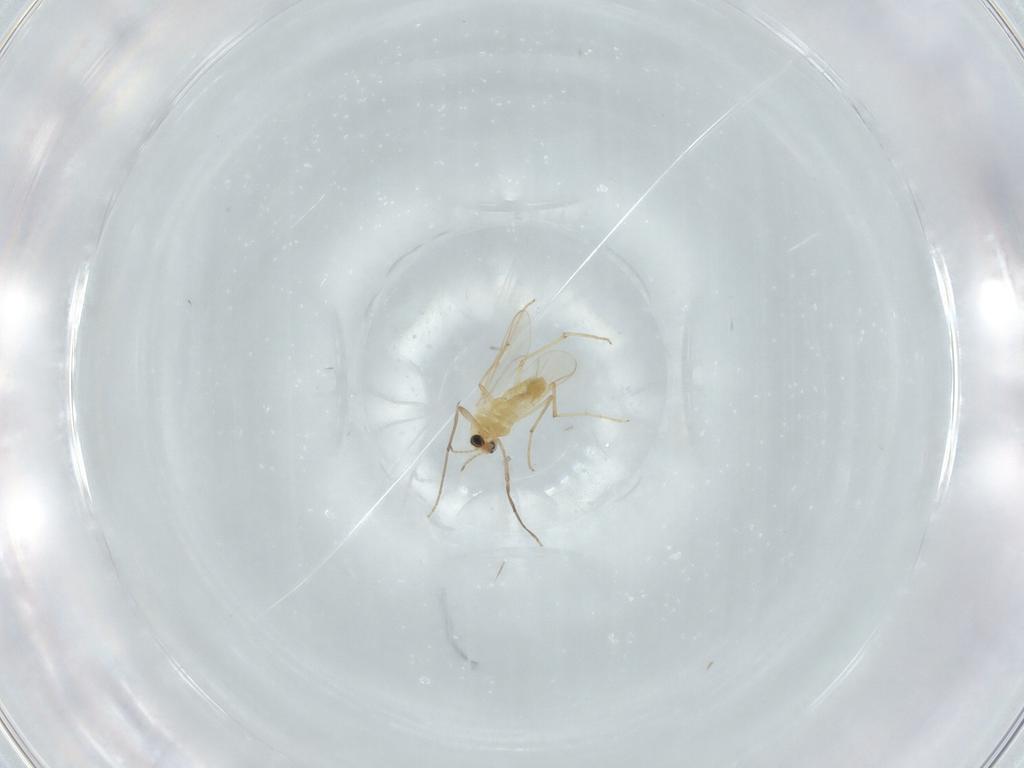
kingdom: Animalia
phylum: Arthropoda
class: Insecta
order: Diptera
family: Chironomidae
